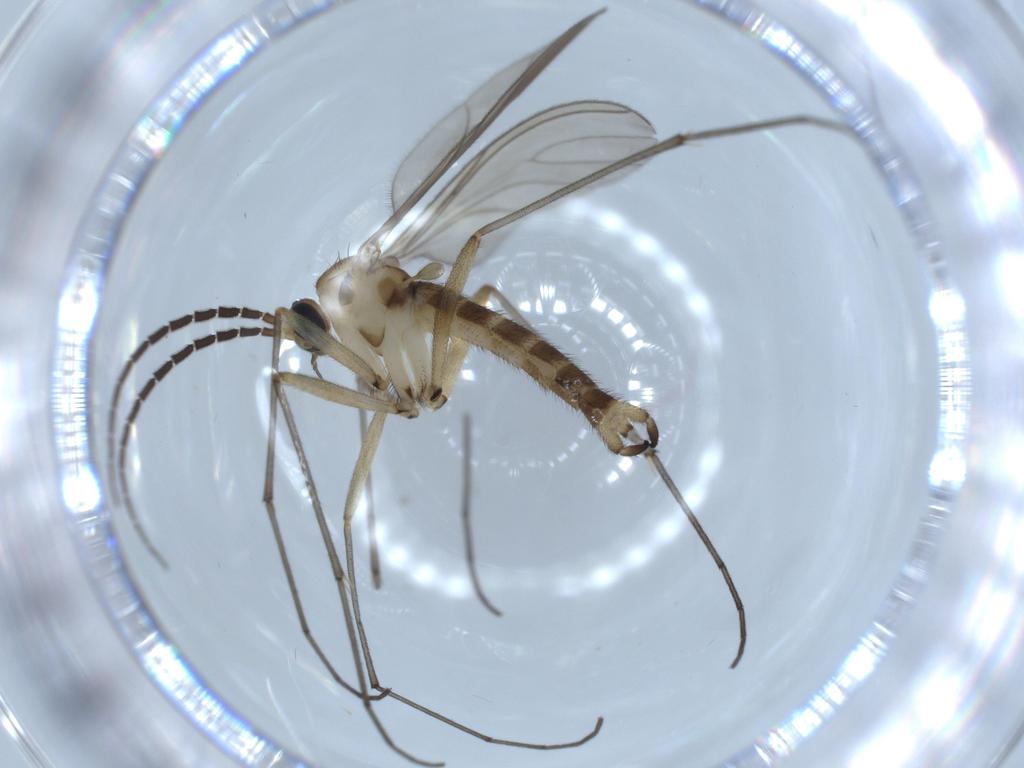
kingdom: Animalia
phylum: Arthropoda
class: Insecta
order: Diptera
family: Sciaridae
